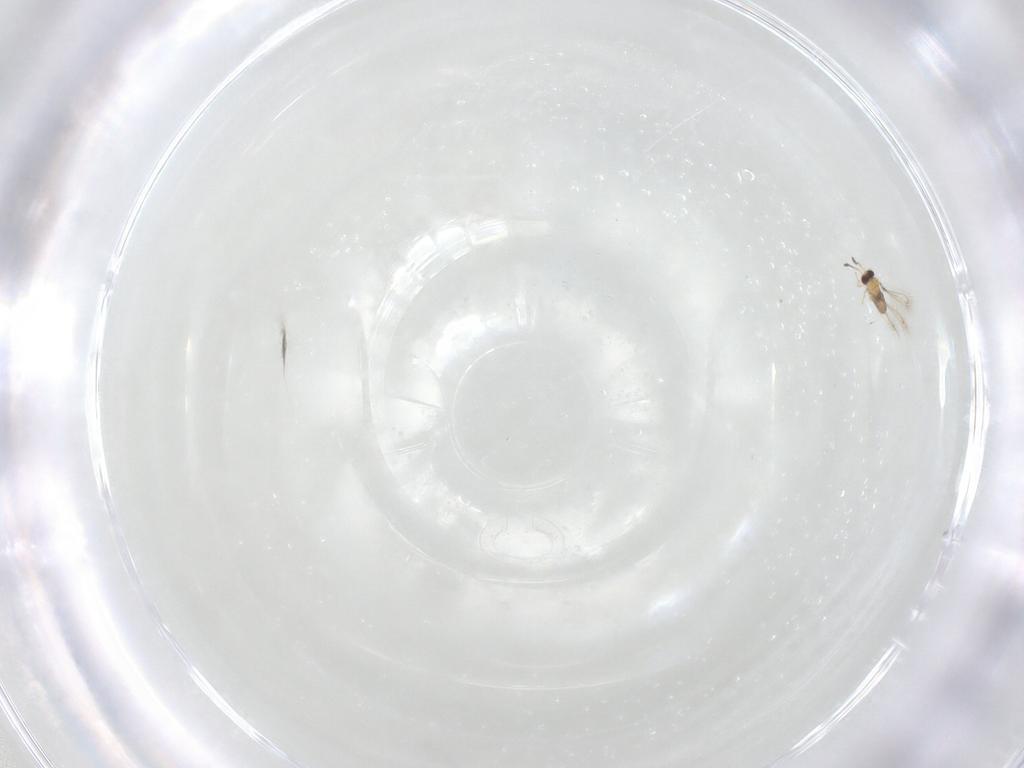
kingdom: Animalia
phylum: Arthropoda
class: Insecta
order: Hymenoptera
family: Mymaridae
